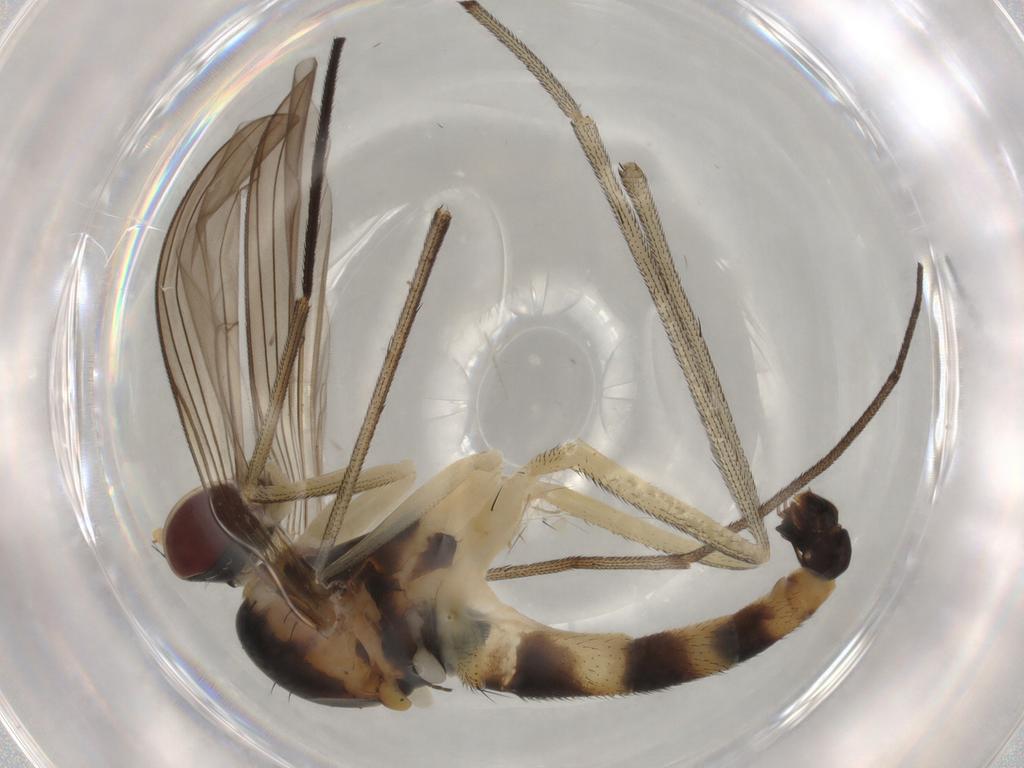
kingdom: Animalia
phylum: Arthropoda
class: Insecta
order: Diptera
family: Cecidomyiidae
